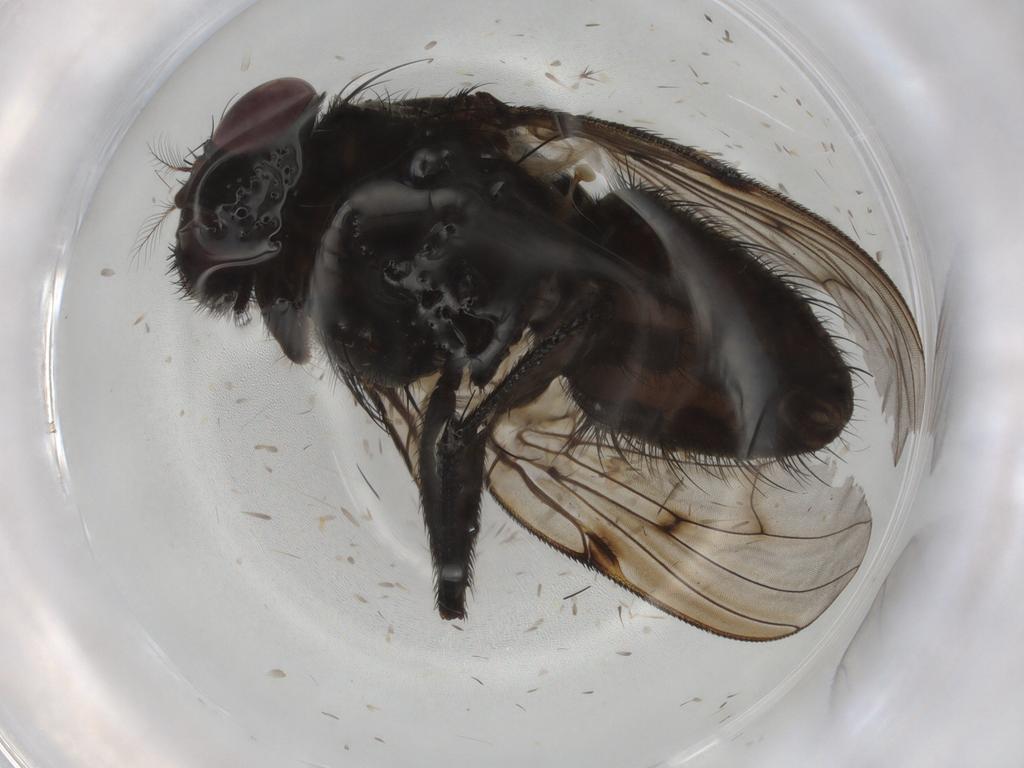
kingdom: Animalia
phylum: Arthropoda
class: Insecta
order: Diptera
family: Muscidae
